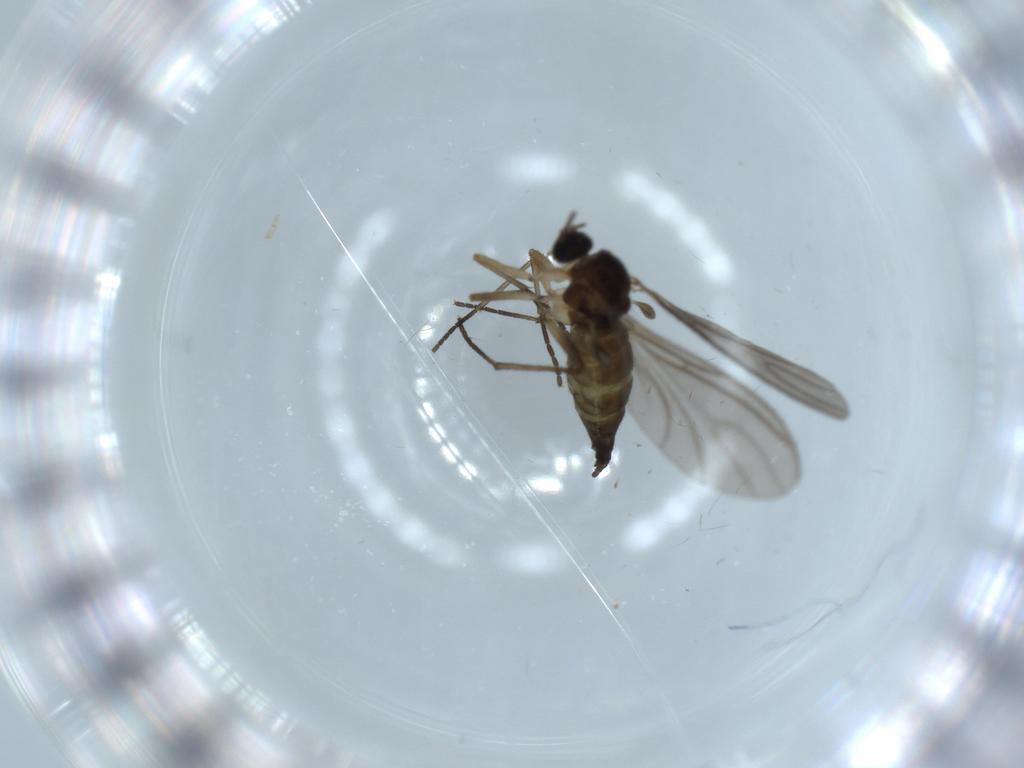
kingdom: Animalia
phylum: Arthropoda
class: Insecta
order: Diptera
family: Sciaridae
